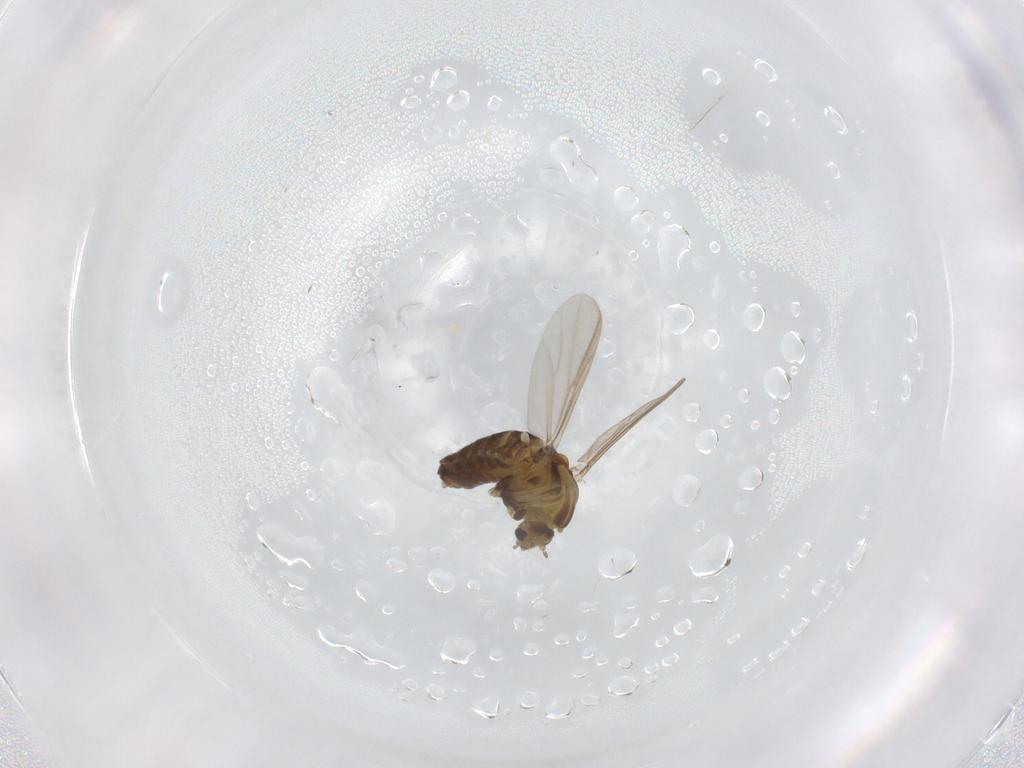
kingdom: Animalia
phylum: Arthropoda
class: Insecta
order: Diptera
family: Chironomidae
